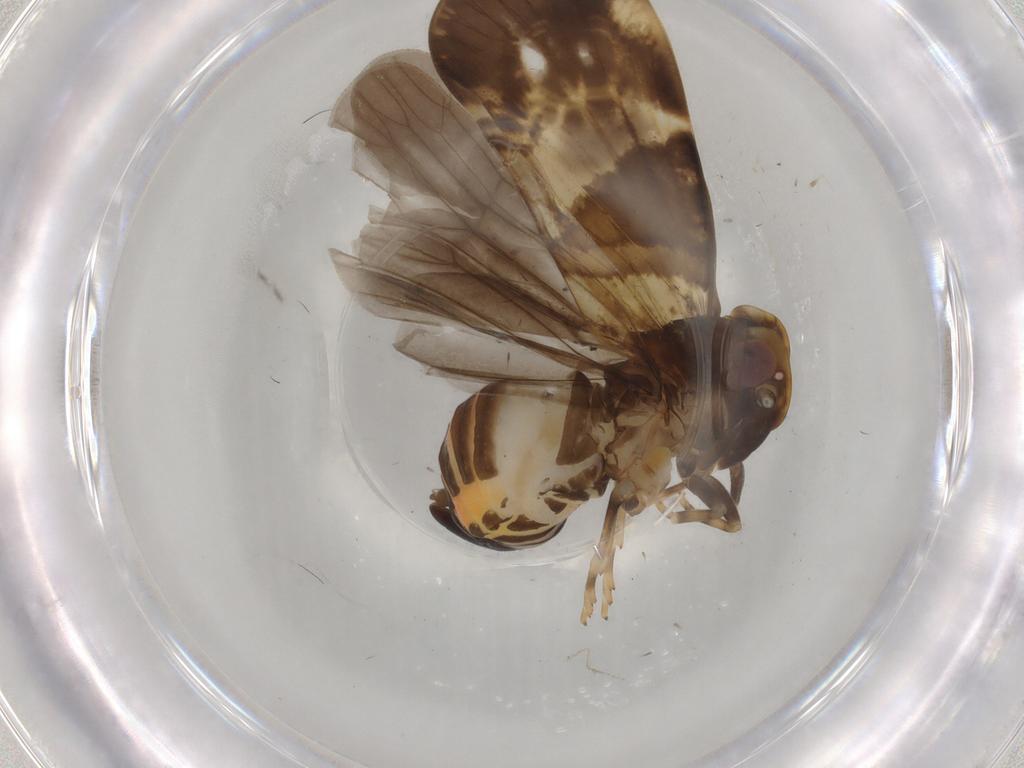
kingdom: Animalia
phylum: Arthropoda
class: Insecta
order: Hemiptera
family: Cixiidae
